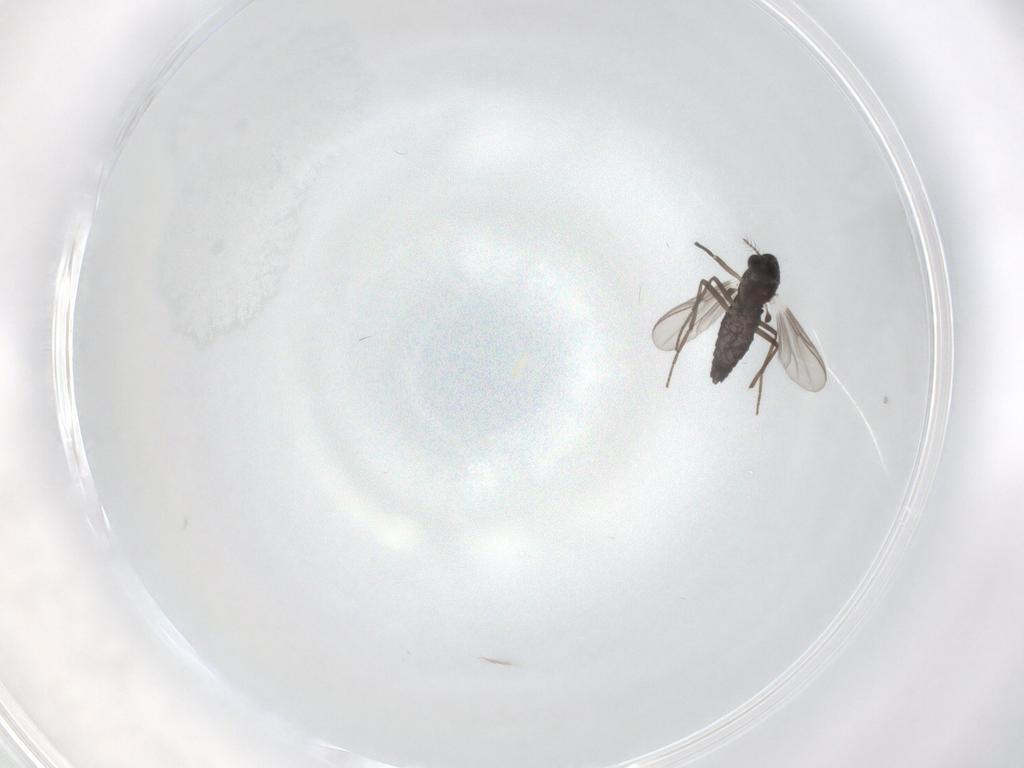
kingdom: Animalia
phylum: Arthropoda
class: Insecta
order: Diptera
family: Chironomidae
